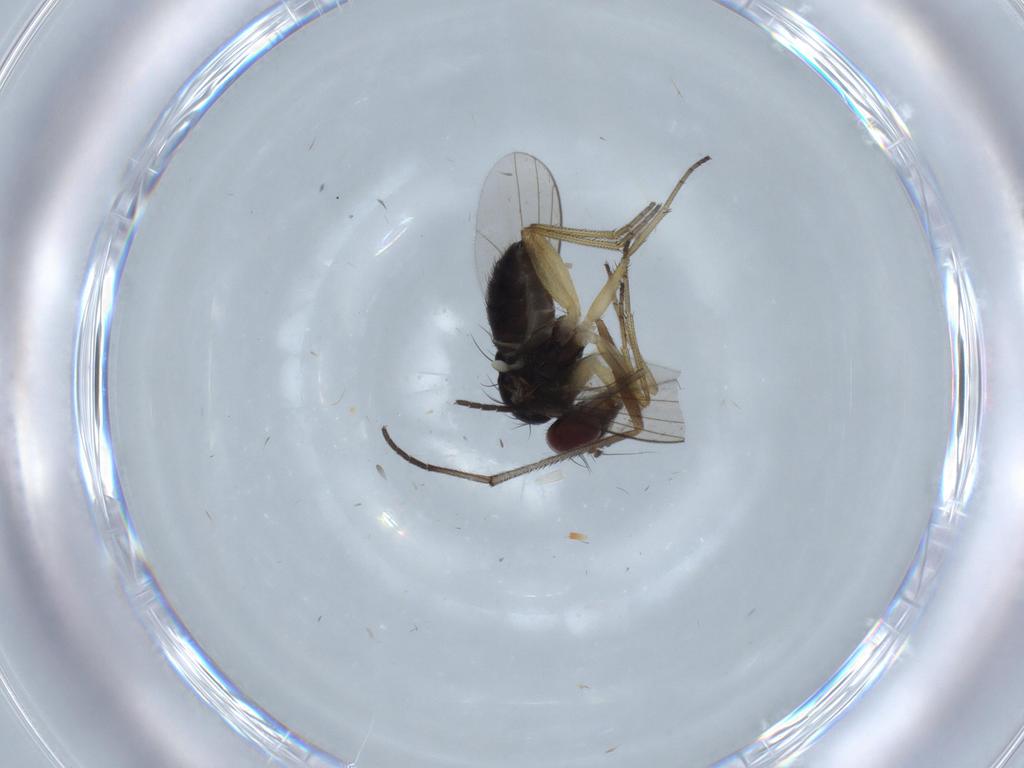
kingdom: Animalia
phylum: Arthropoda
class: Insecta
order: Diptera
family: Dolichopodidae
